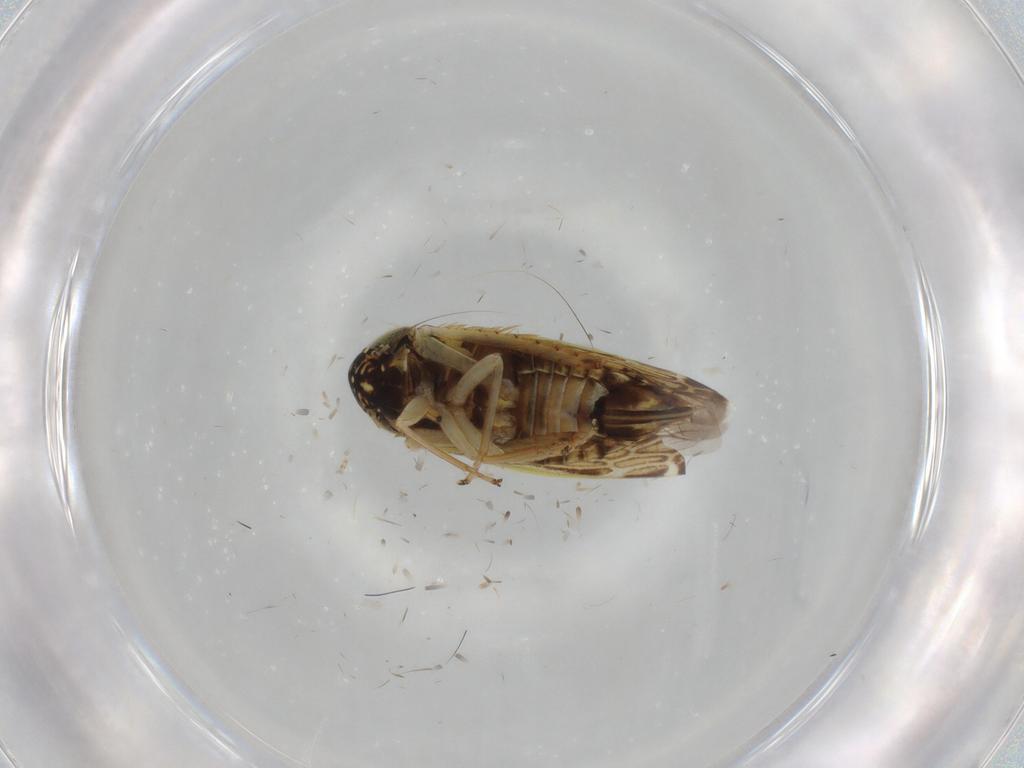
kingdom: Animalia
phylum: Arthropoda
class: Insecta
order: Hemiptera
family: Cicadellidae
